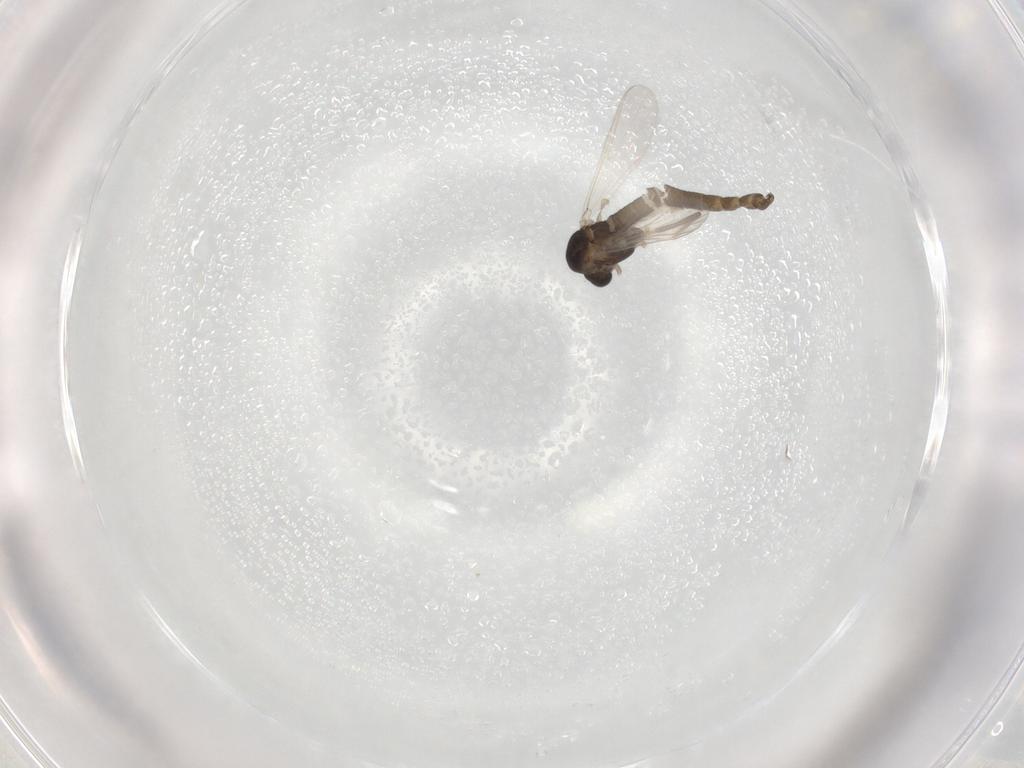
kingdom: Animalia
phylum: Arthropoda
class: Insecta
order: Diptera
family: Chironomidae
